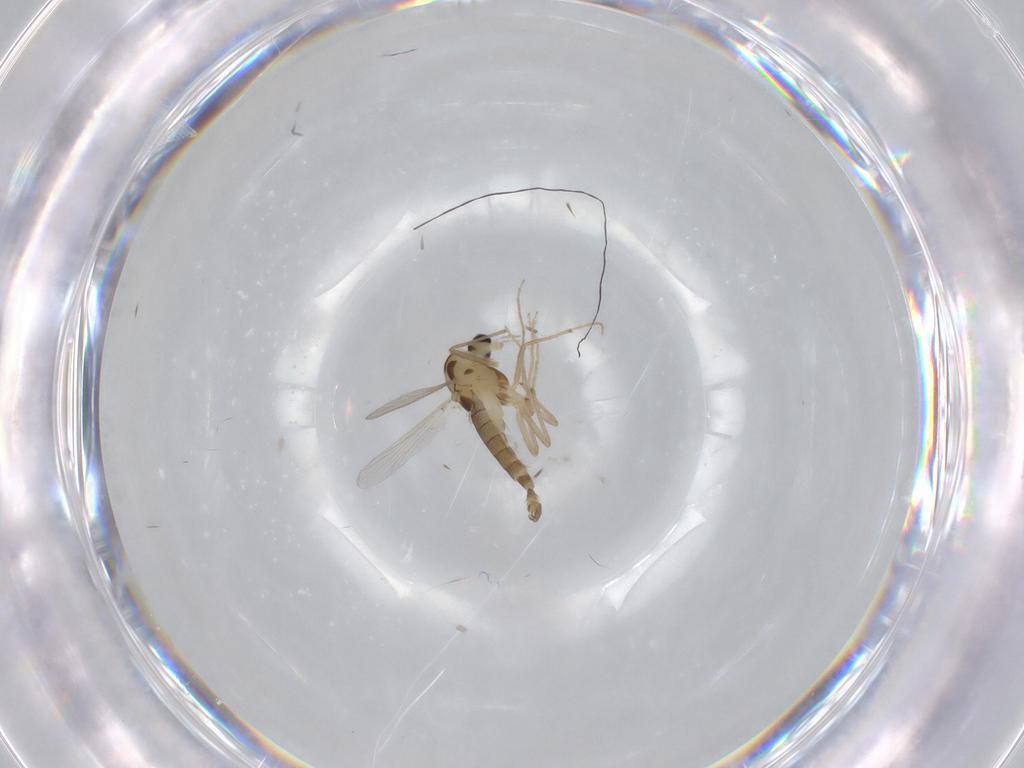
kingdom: Animalia
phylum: Arthropoda
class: Insecta
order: Diptera
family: Chironomidae
